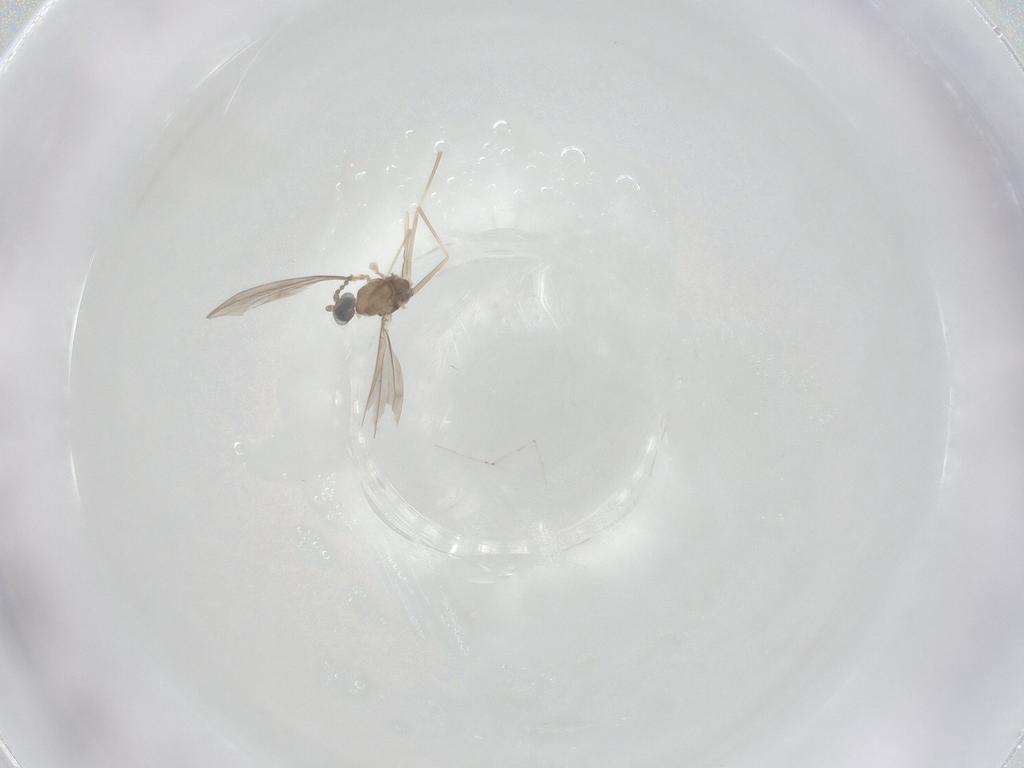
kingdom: Animalia
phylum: Arthropoda
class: Insecta
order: Diptera
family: Cecidomyiidae
